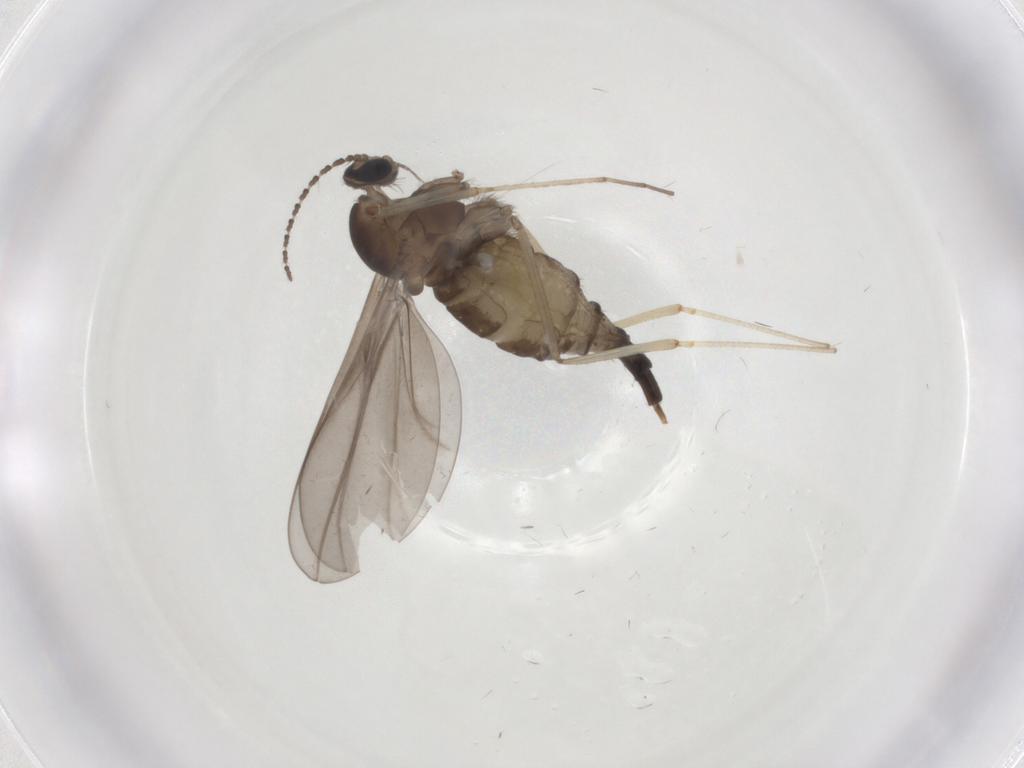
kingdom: Animalia
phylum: Arthropoda
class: Insecta
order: Diptera
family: Cecidomyiidae
